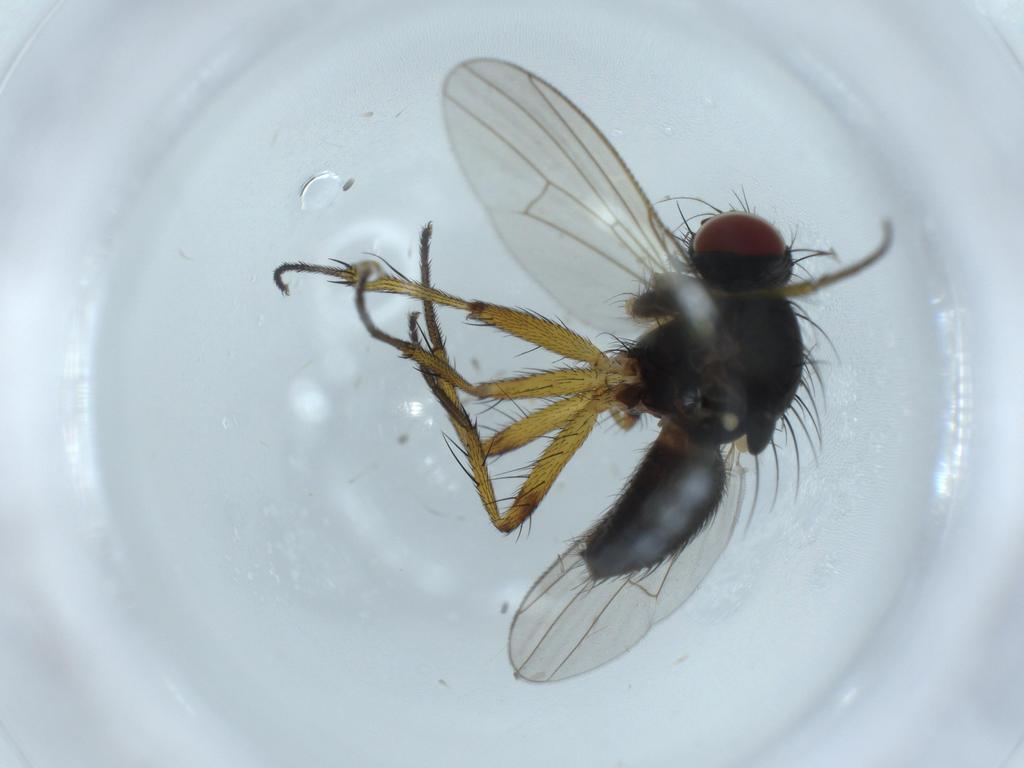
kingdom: Animalia
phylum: Arthropoda
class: Insecta
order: Diptera
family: Muscidae
